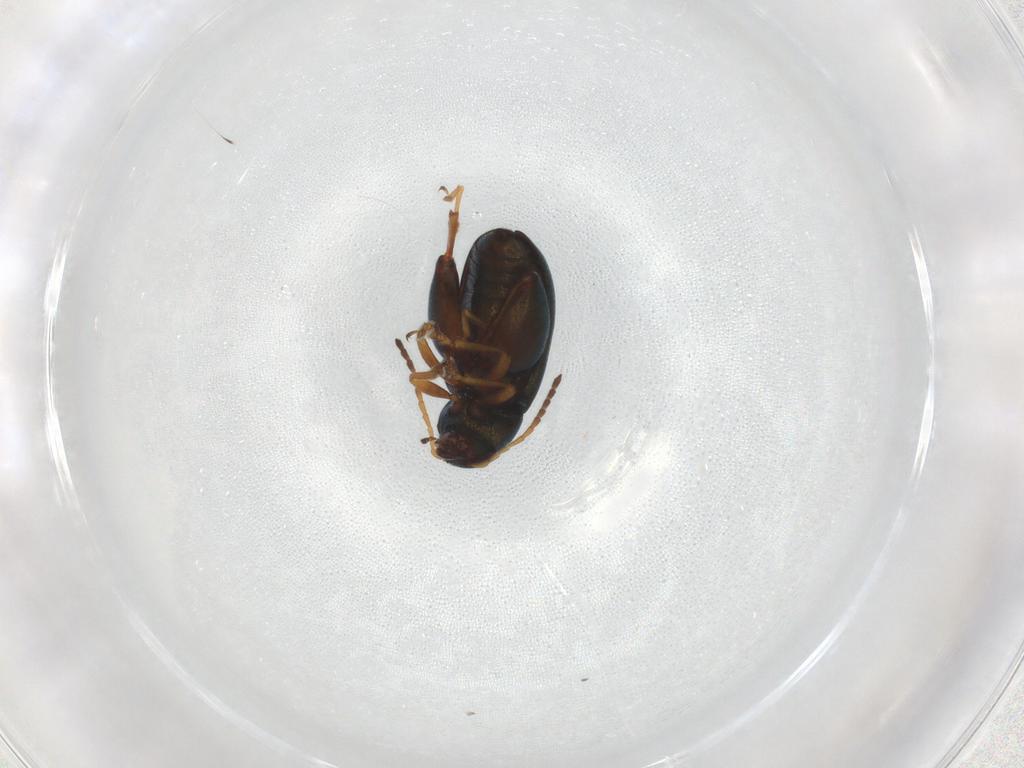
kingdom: Animalia
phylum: Arthropoda
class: Insecta
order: Coleoptera
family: Chrysomelidae
